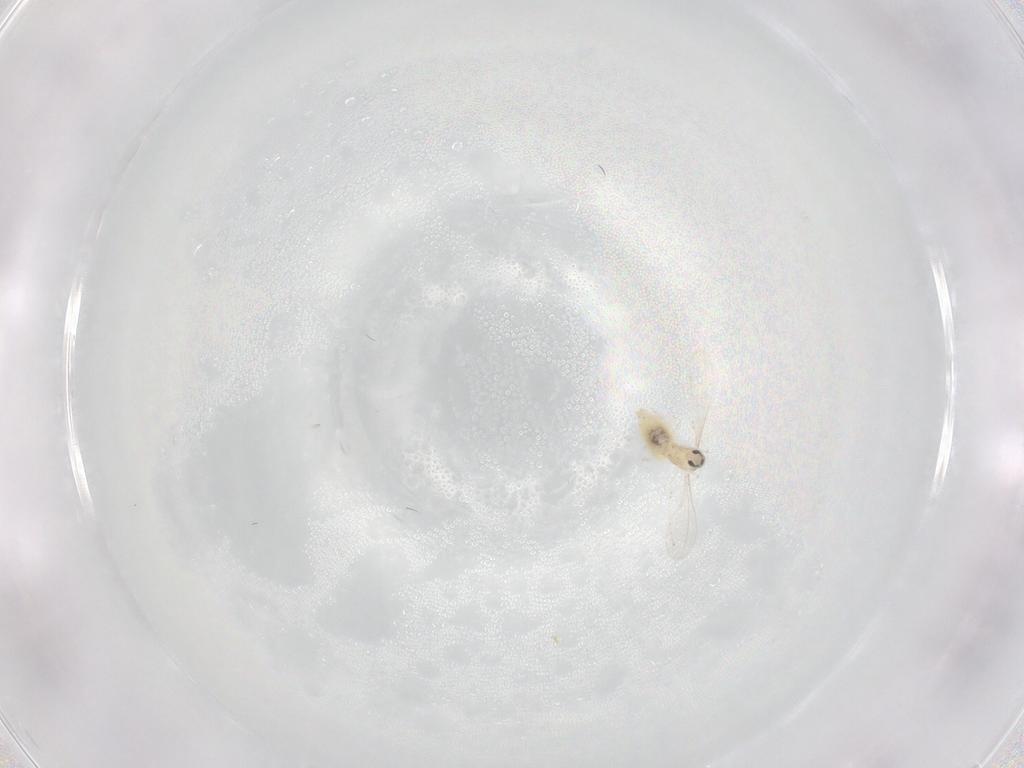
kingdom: Animalia
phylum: Arthropoda
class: Insecta
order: Diptera
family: Cecidomyiidae
